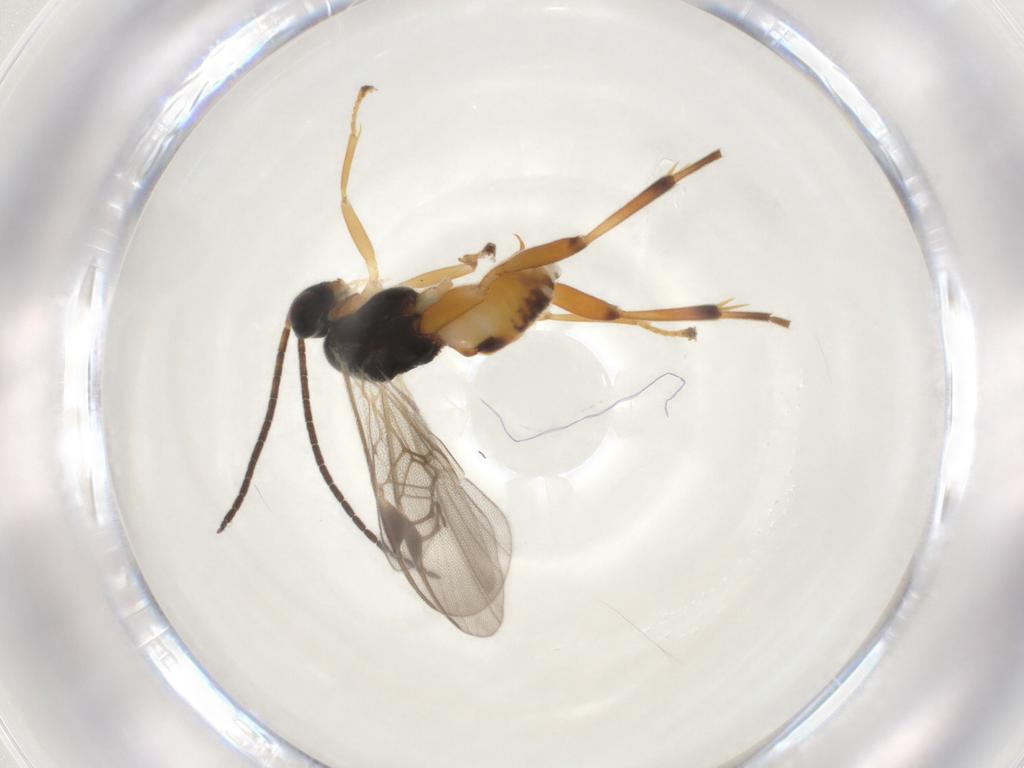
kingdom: Animalia
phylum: Arthropoda
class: Insecta
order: Hymenoptera
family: Braconidae
